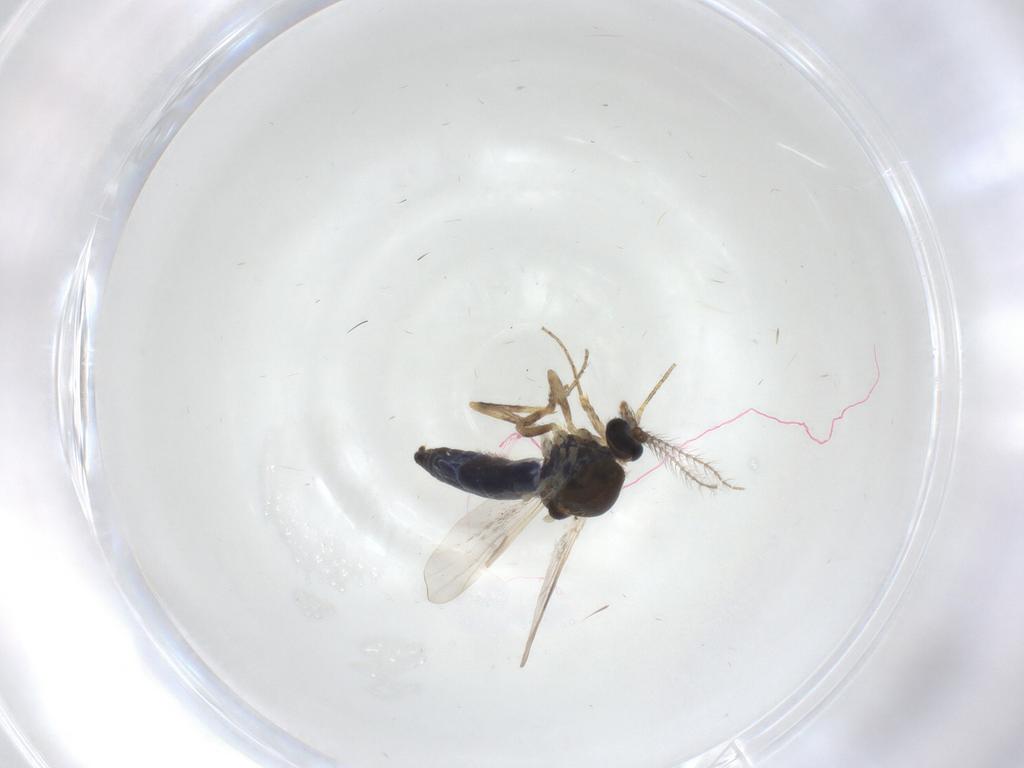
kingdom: Animalia
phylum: Arthropoda
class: Insecta
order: Diptera
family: Ceratopogonidae
